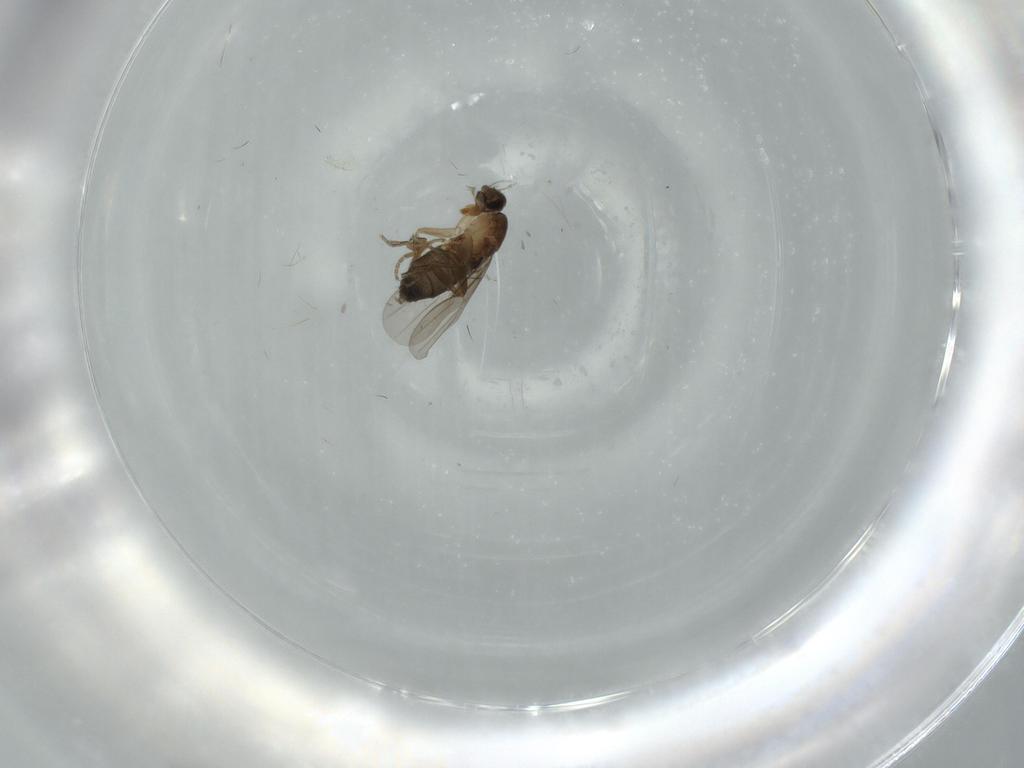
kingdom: Animalia
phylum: Arthropoda
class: Insecta
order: Diptera
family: Phoridae
